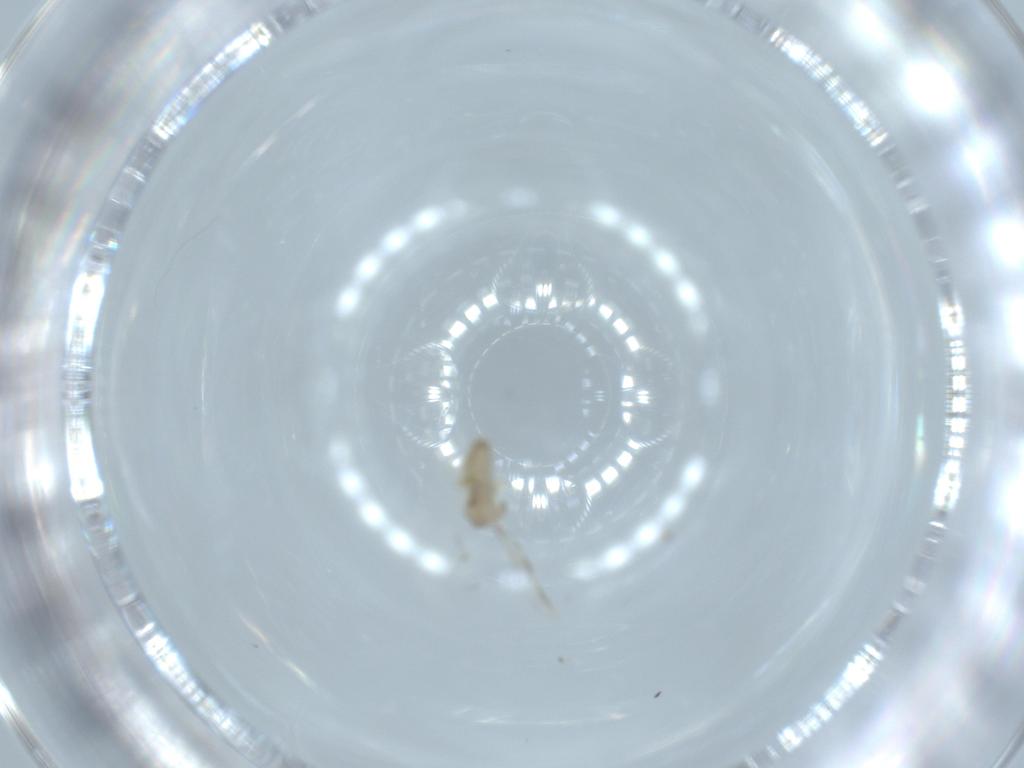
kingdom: Animalia
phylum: Arthropoda
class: Insecta
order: Diptera
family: Cecidomyiidae
